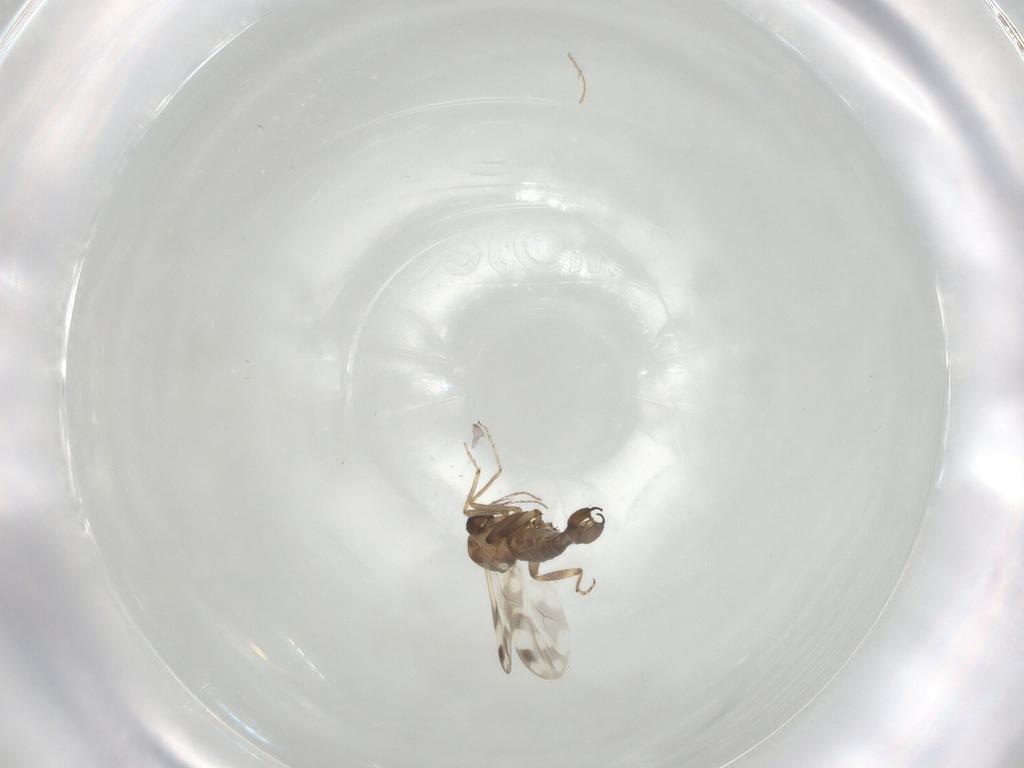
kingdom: Animalia
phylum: Arthropoda
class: Insecta
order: Diptera
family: Ceratopogonidae
